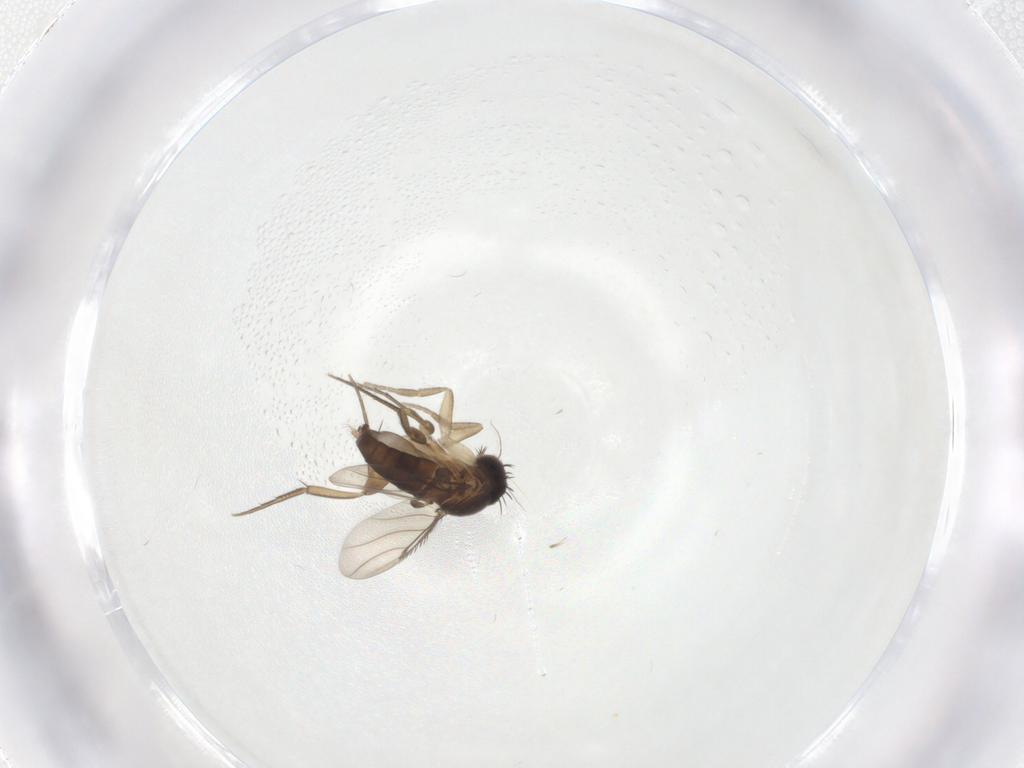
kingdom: Animalia
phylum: Arthropoda
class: Insecta
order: Diptera
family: Phoridae
